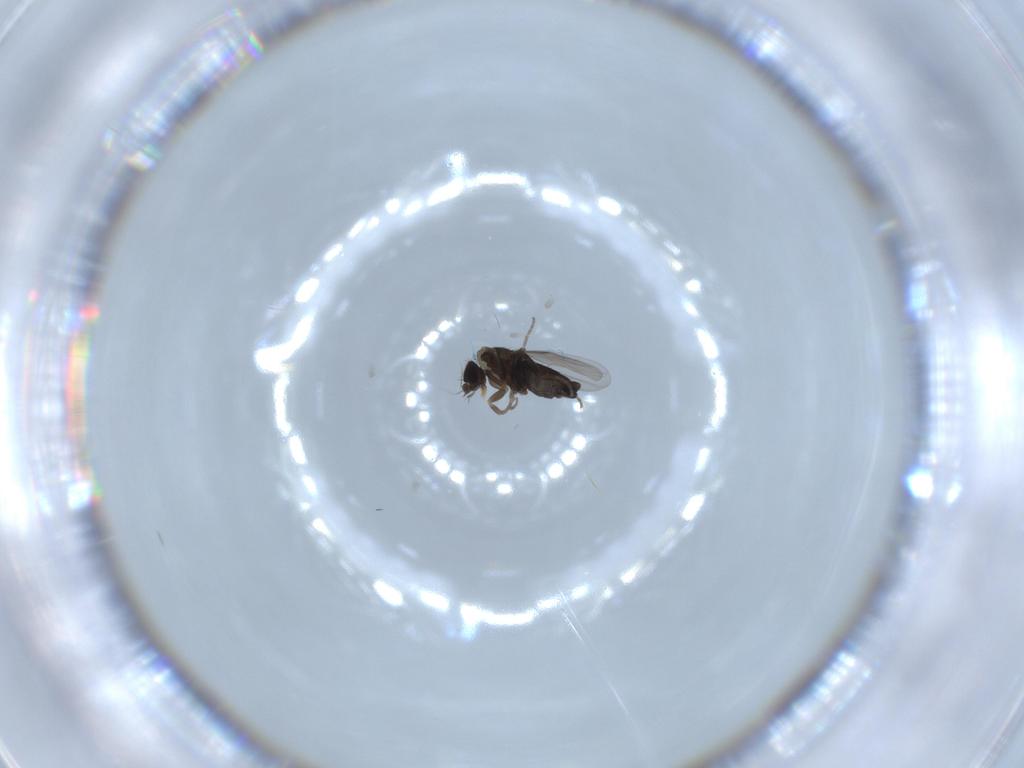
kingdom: Animalia
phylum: Arthropoda
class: Insecta
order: Diptera
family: Phoridae
